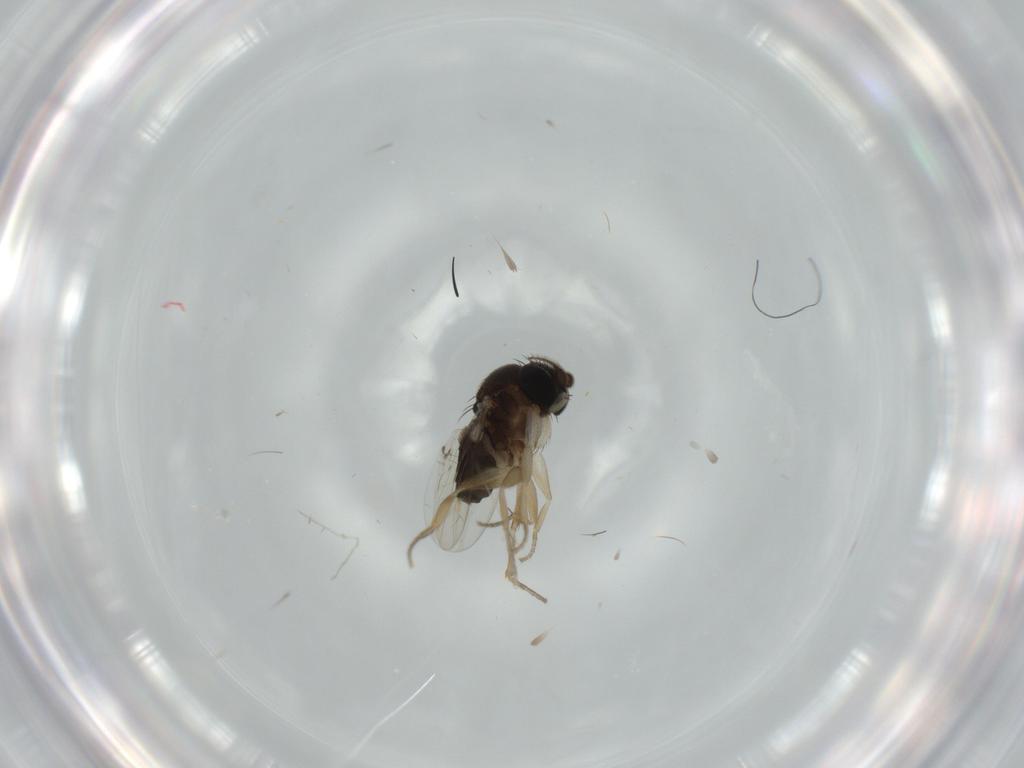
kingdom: Animalia
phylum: Arthropoda
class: Insecta
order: Diptera
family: Phoridae
